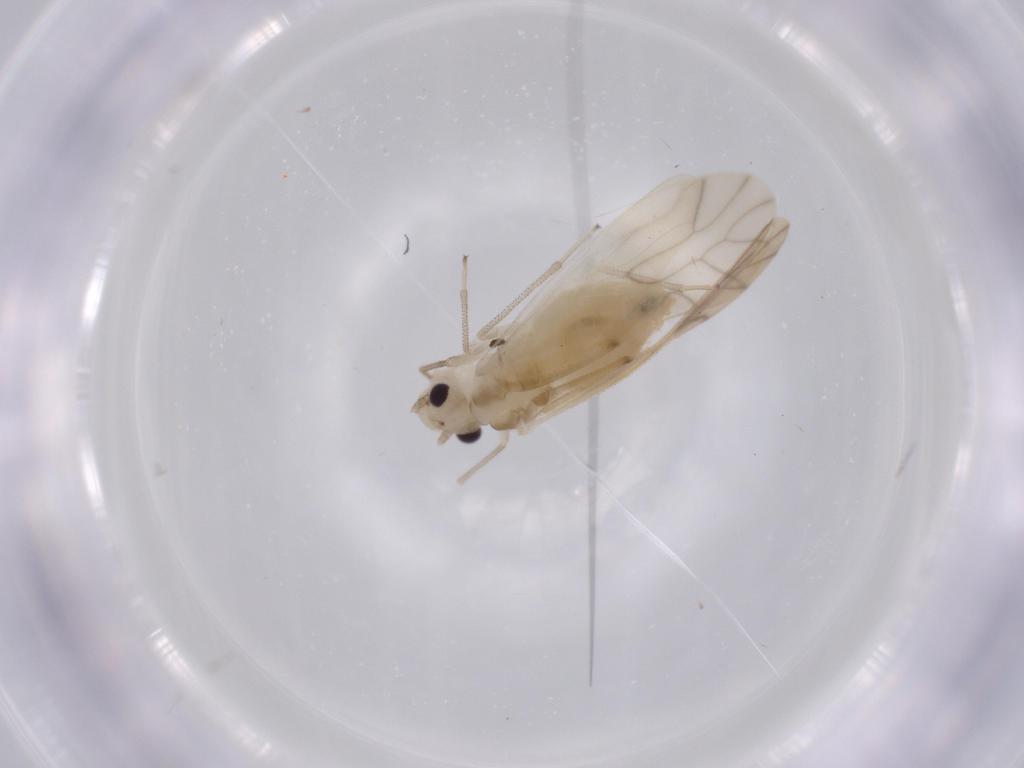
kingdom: Animalia
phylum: Arthropoda
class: Insecta
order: Psocodea
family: Caeciliusidae
